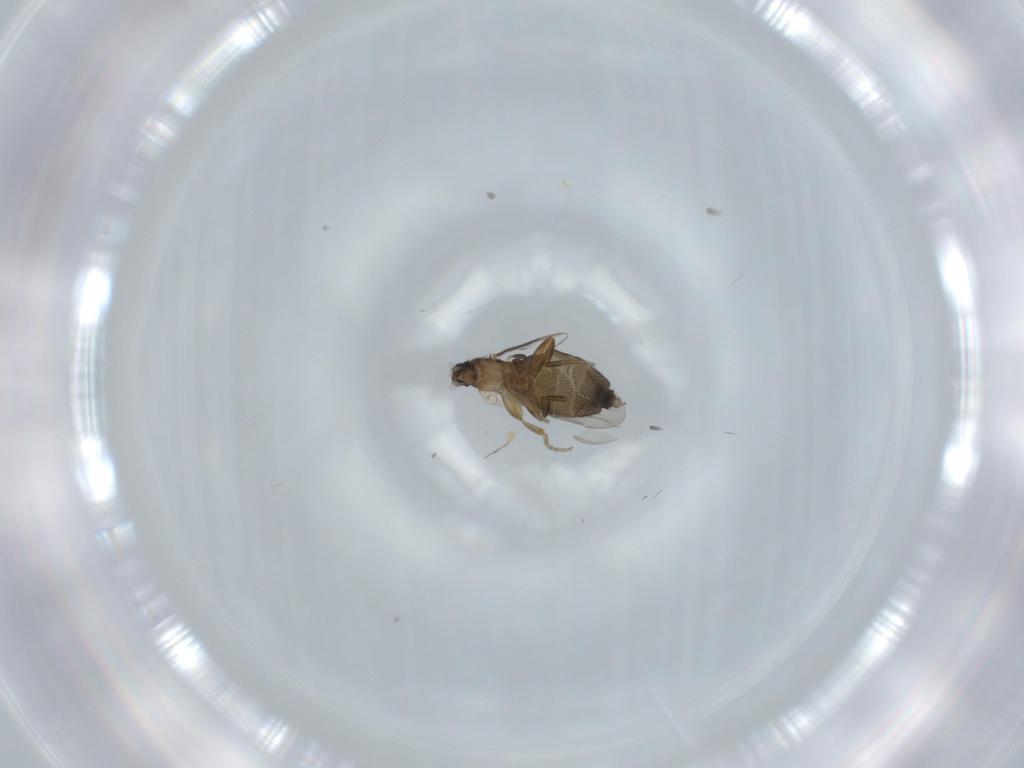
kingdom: Animalia
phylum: Arthropoda
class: Insecta
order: Diptera
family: Phoridae
